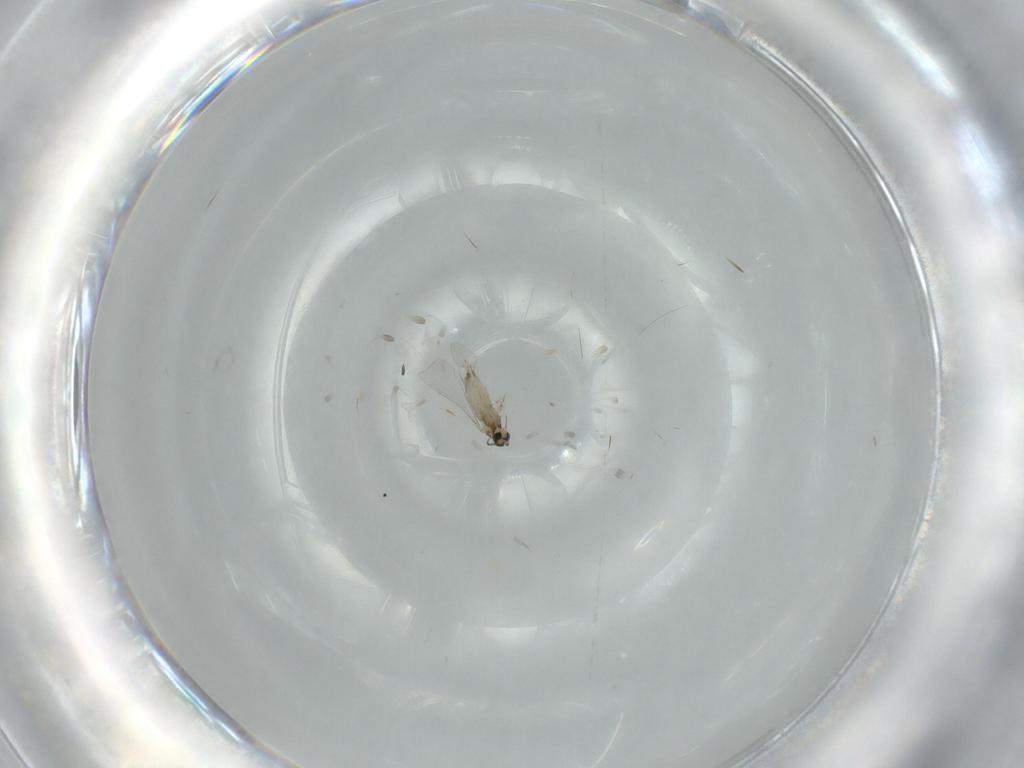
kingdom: Animalia
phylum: Arthropoda
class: Insecta
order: Diptera
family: Cecidomyiidae
